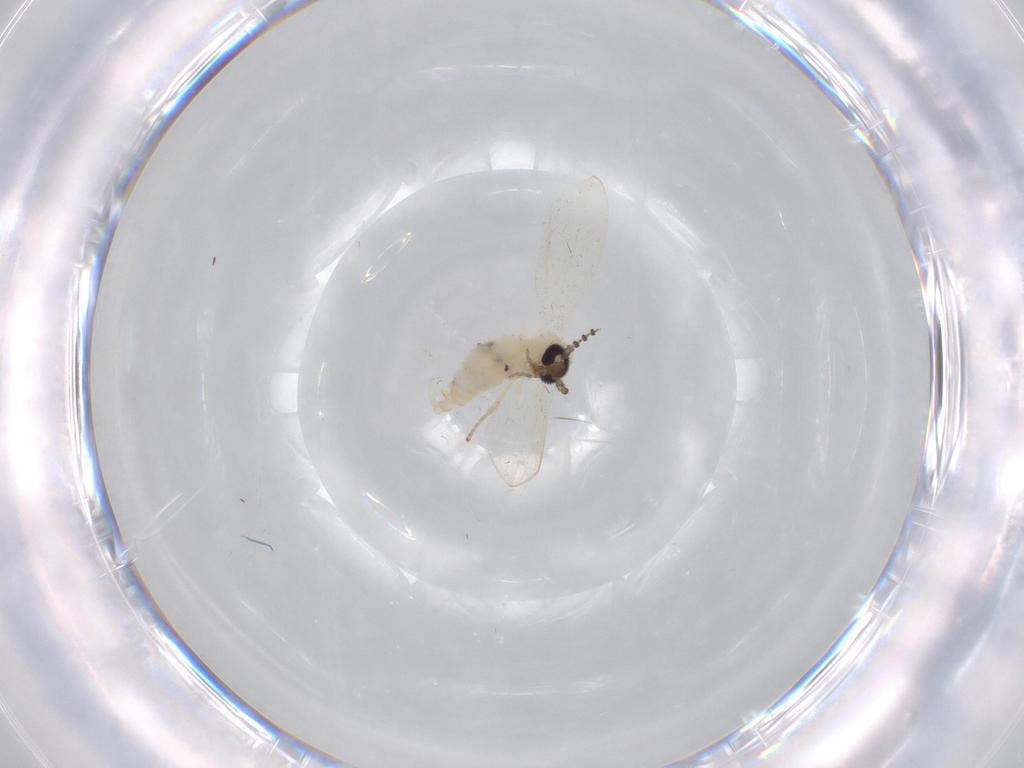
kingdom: Animalia
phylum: Arthropoda
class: Insecta
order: Diptera
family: Psychodidae
